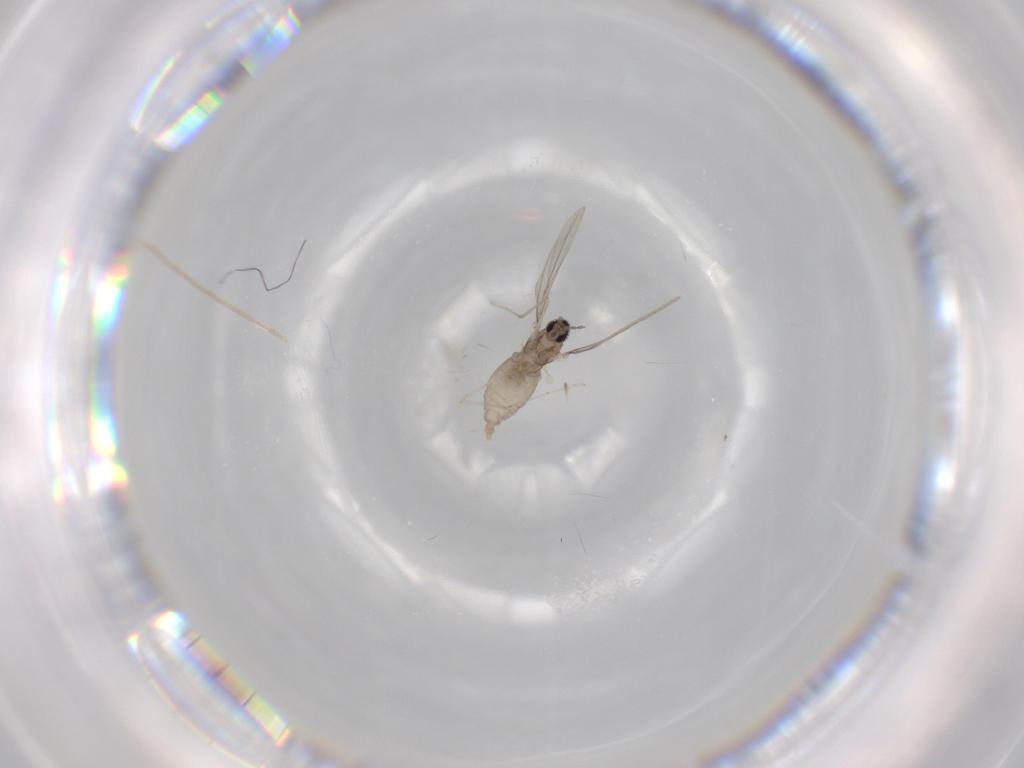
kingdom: Animalia
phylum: Arthropoda
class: Insecta
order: Diptera
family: Cecidomyiidae
